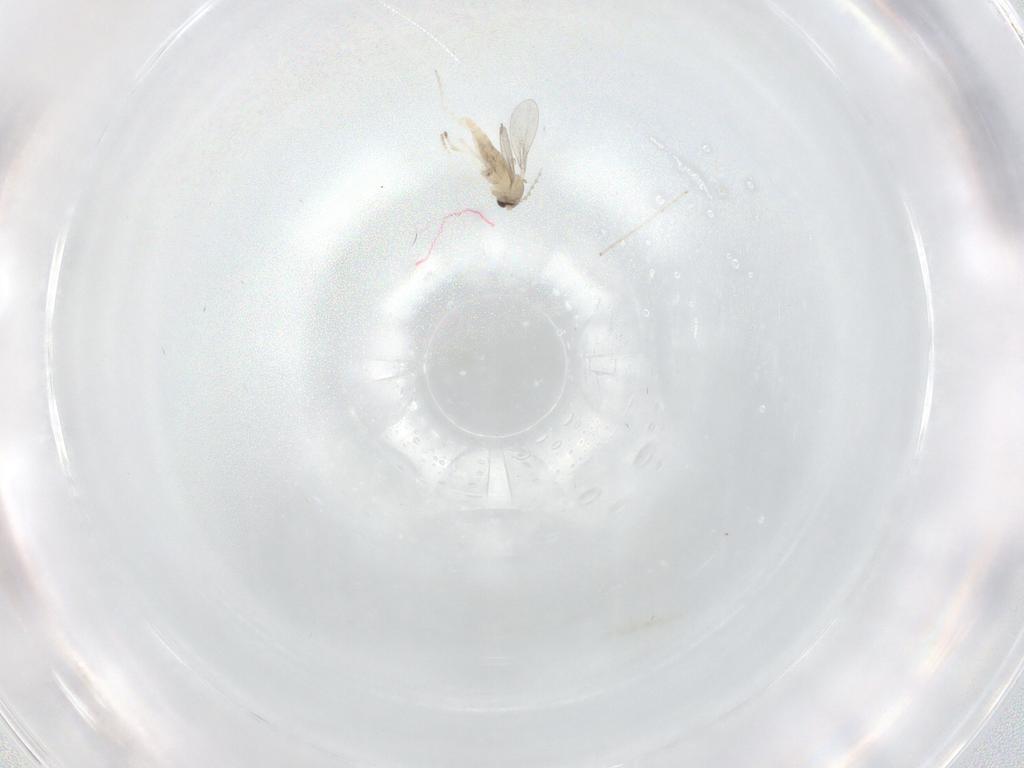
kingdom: Animalia
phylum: Arthropoda
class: Insecta
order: Diptera
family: Cecidomyiidae
